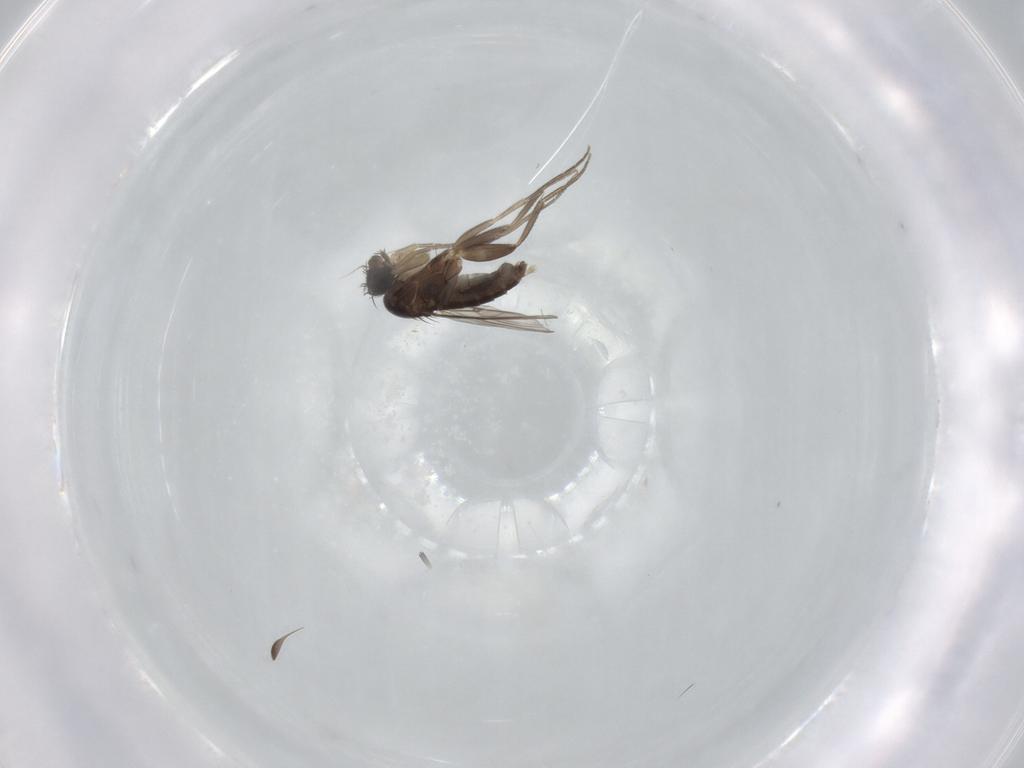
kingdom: Animalia
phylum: Arthropoda
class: Insecta
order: Diptera
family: Phoridae
